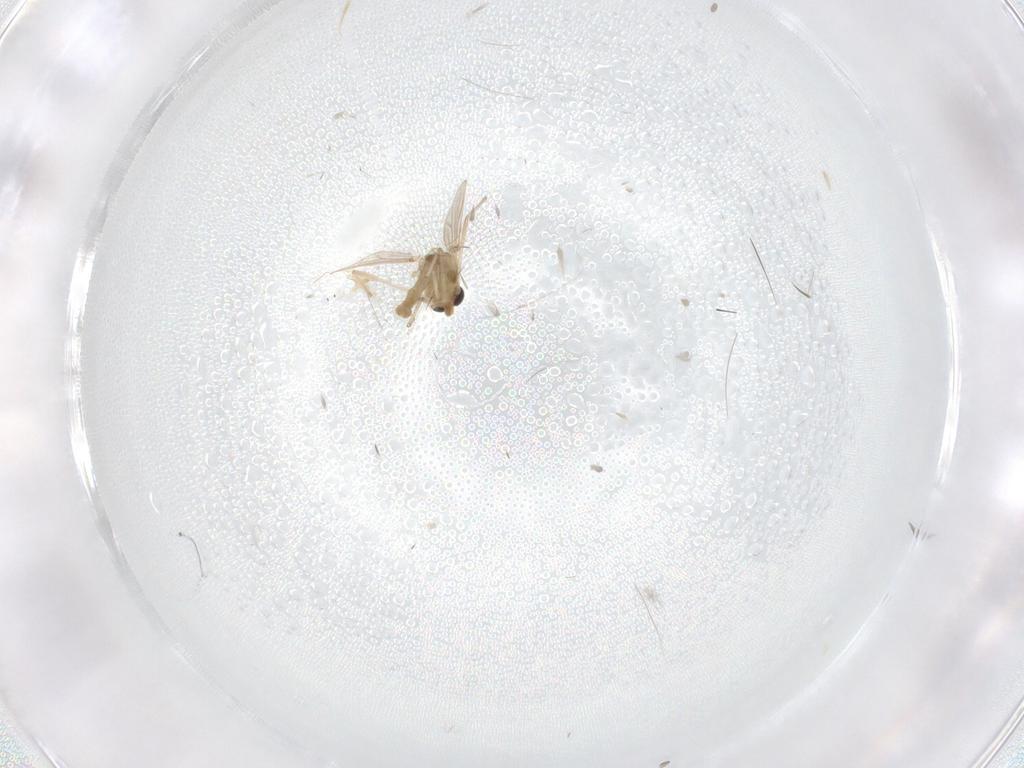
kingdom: Animalia
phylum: Arthropoda
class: Insecta
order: Diptera
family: Chironomidae
